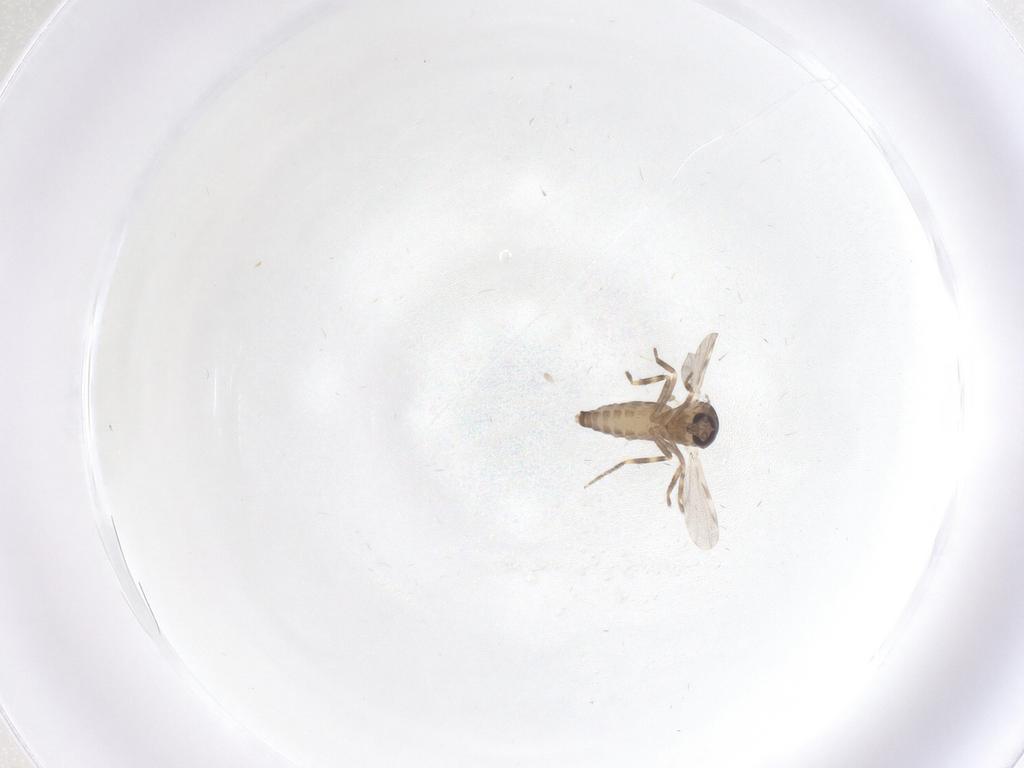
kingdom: Animalia
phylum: Arthropoda
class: Insecta
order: Diptera
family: Ceratopogonidae
